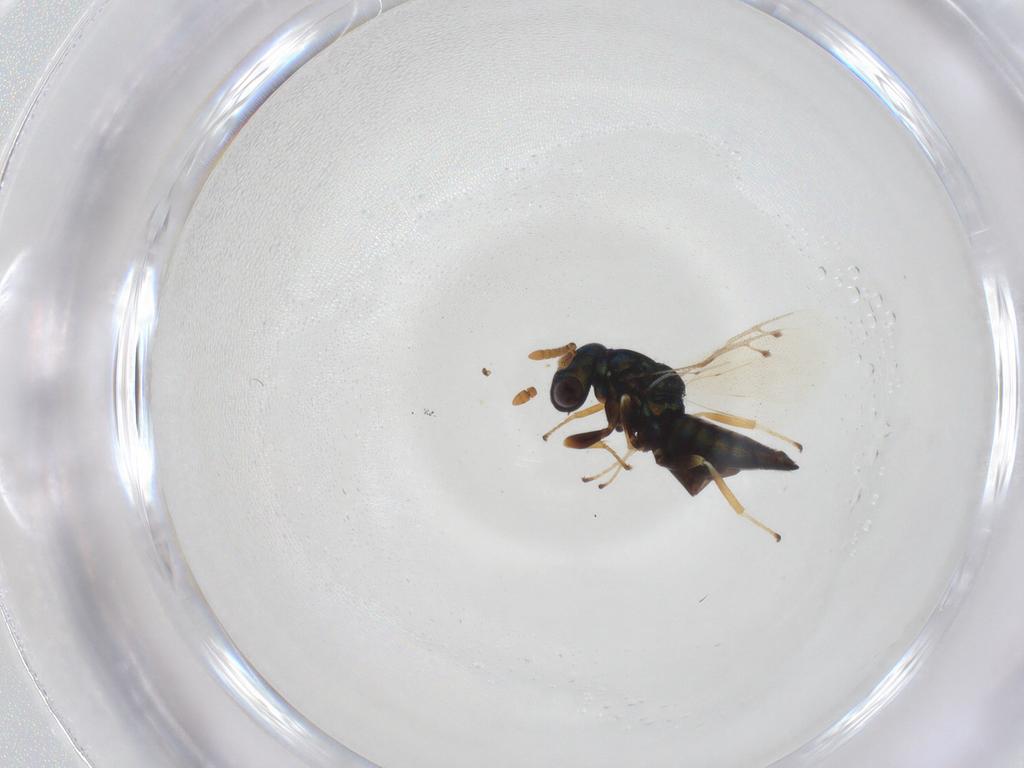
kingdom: Animalia
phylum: Arthropoda
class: Insecta
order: Hymenoptera
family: Pteromalidae
